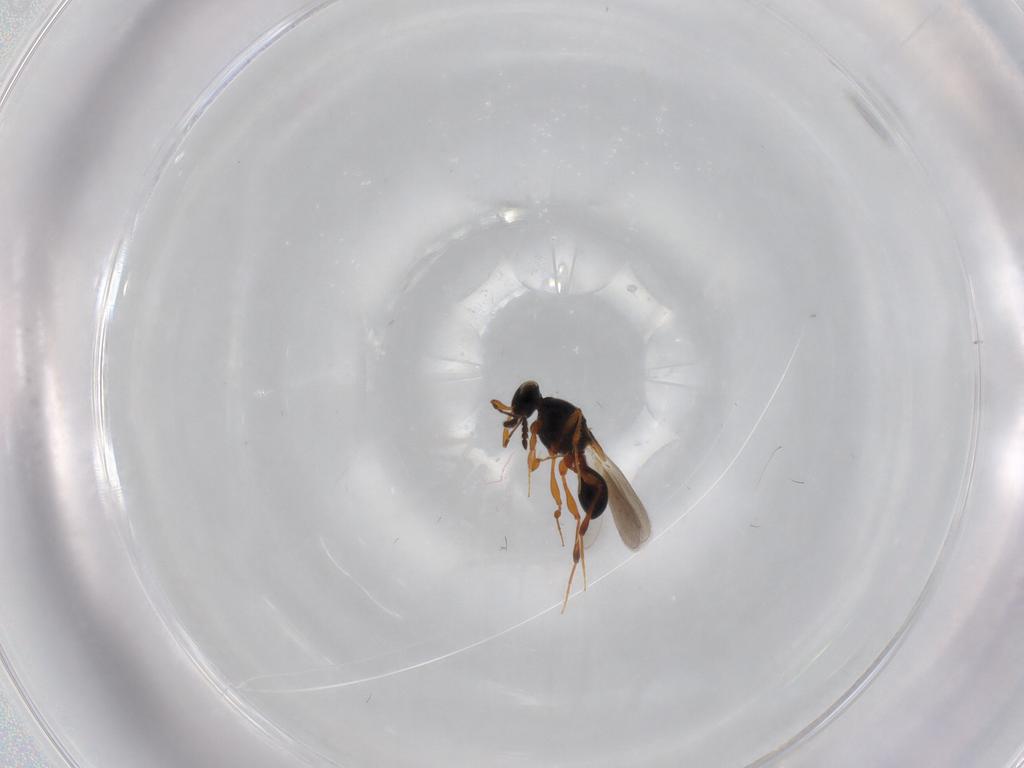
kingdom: Animalia
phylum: Arthropoda
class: Insecta
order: Hymenoptera
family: Platygastridae
